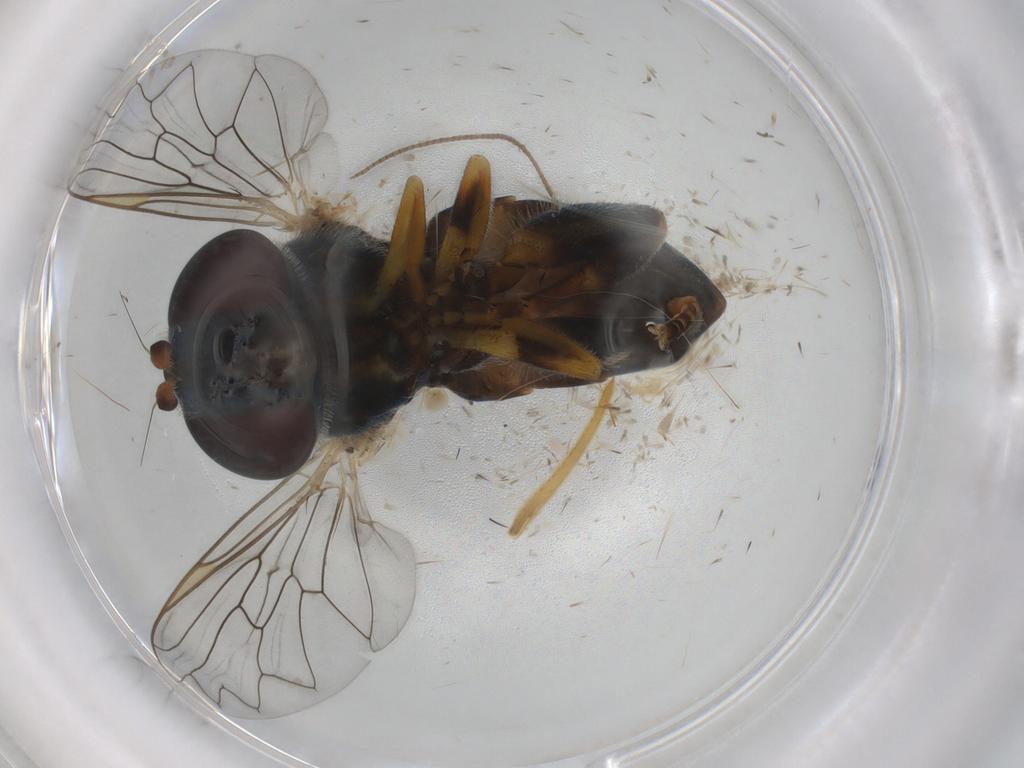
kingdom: Animalia
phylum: Arthropoda
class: Insecta
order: Diptera
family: Syrphidae
